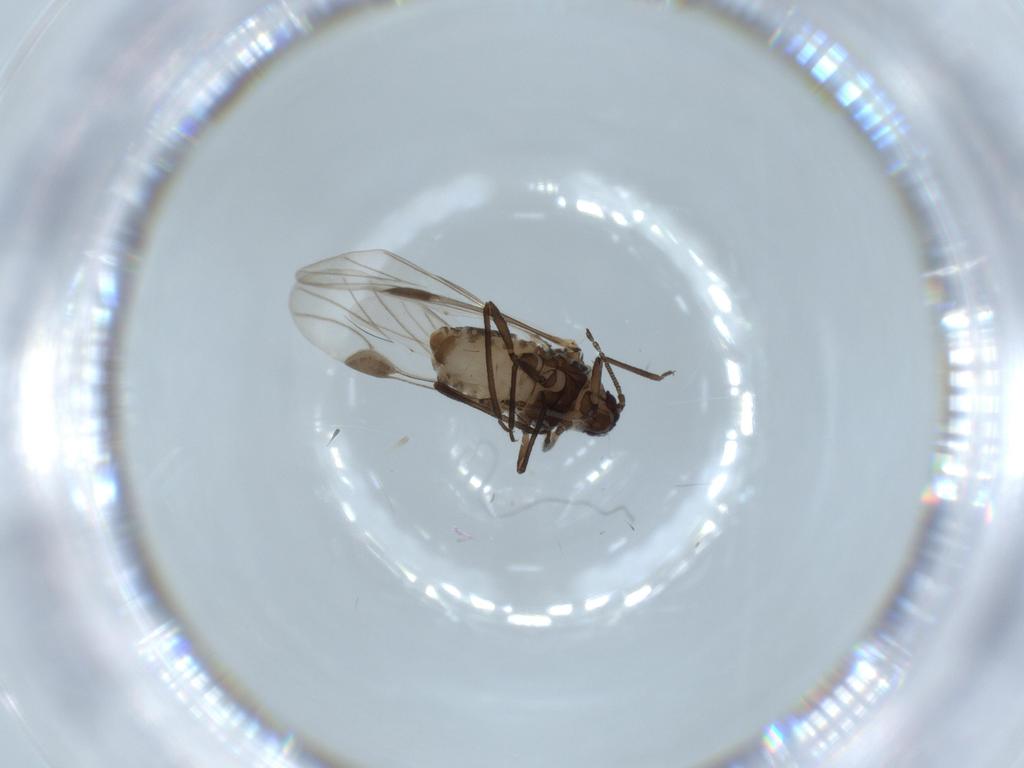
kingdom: Animalia
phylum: Arthropoda
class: Insecta
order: Hemiptera
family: Aphididae
